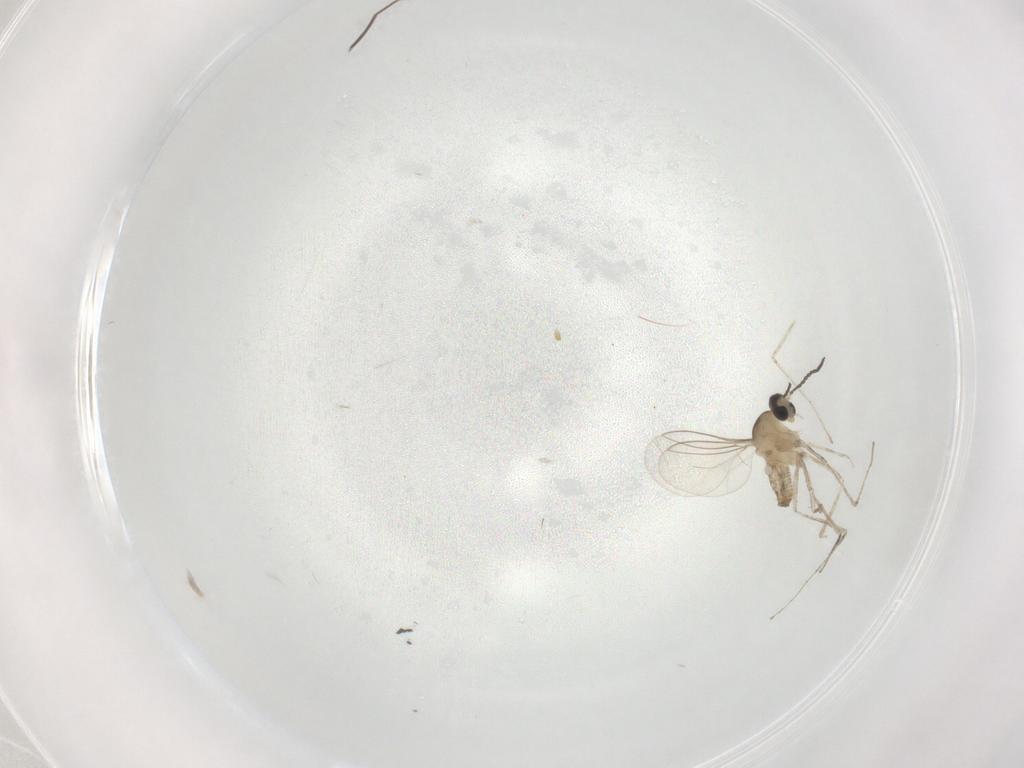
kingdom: Animalia
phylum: Arthropoda
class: Insecta
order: Diptera
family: Cecidomyiidae
